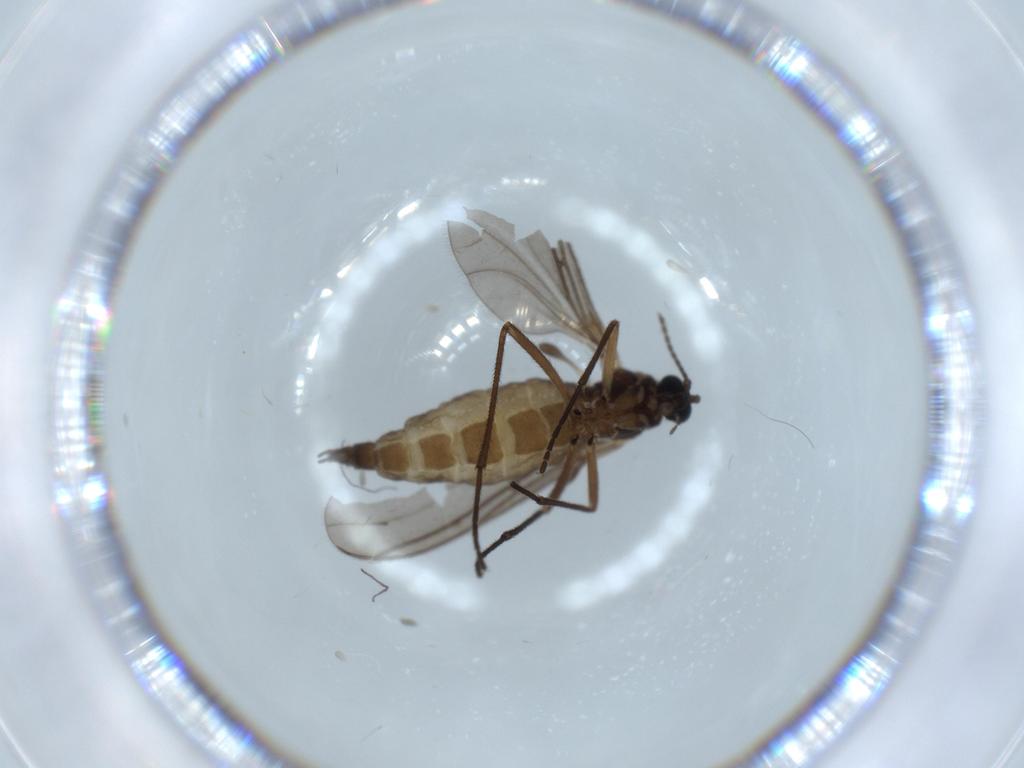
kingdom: Animalia
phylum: Arthropoda
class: Insecta
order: Diptera
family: Sciaridae
